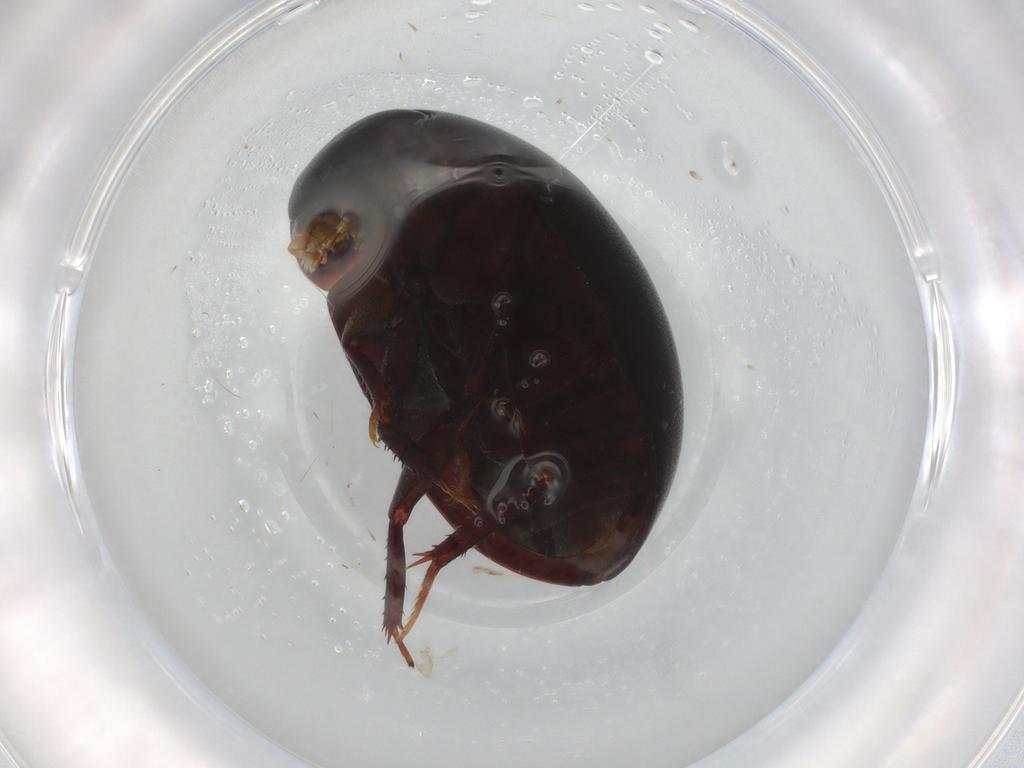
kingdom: Animalia
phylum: Arthropoda
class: Insecta
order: Coleoptera
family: Hydrophilidae
